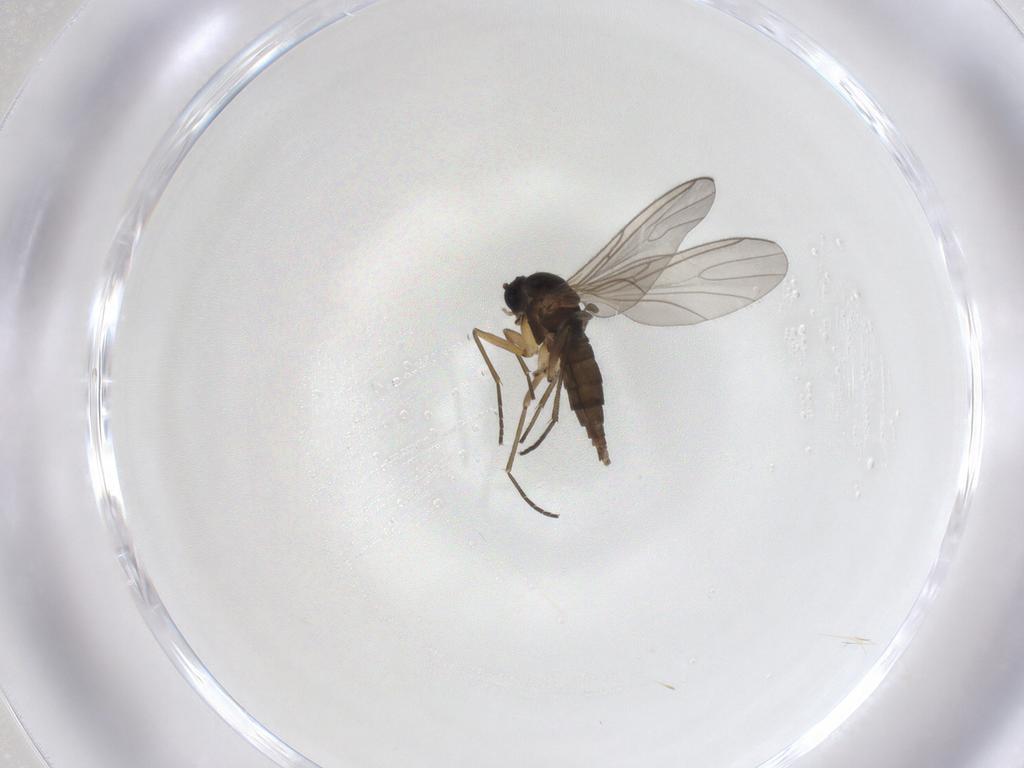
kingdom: Animalia
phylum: Arthropoda
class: Insecta
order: Diptera
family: Sciaridae
